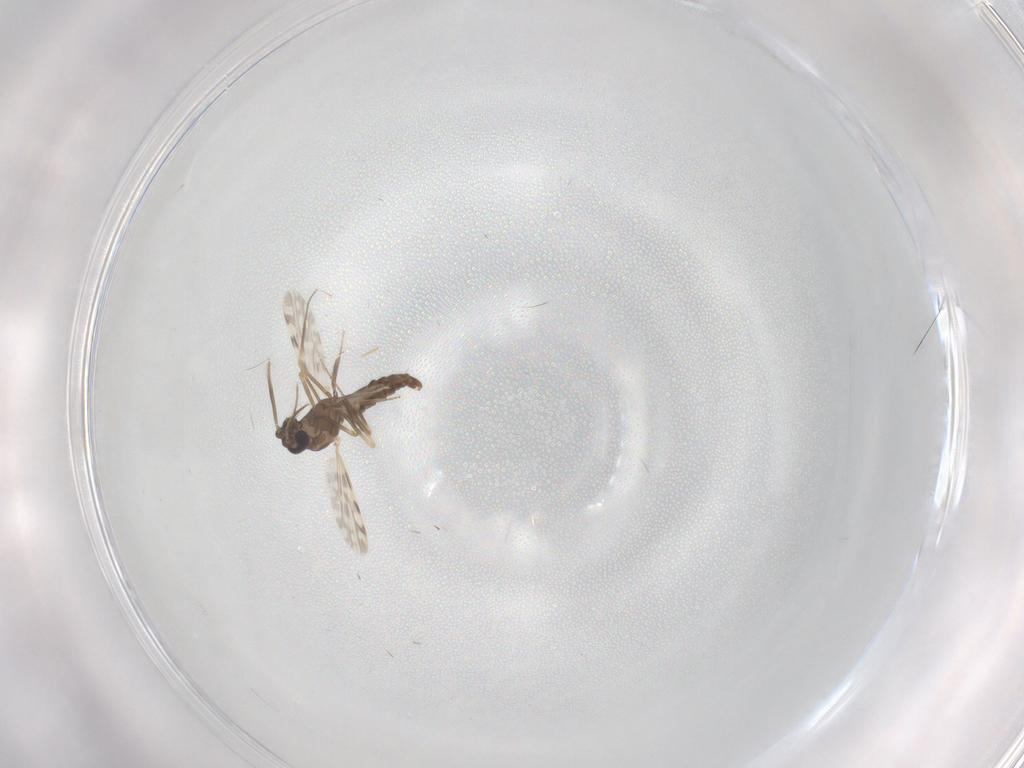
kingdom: Animalia
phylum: Arthropoda
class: Insecta
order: Diptera
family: Ceratopogonidae
